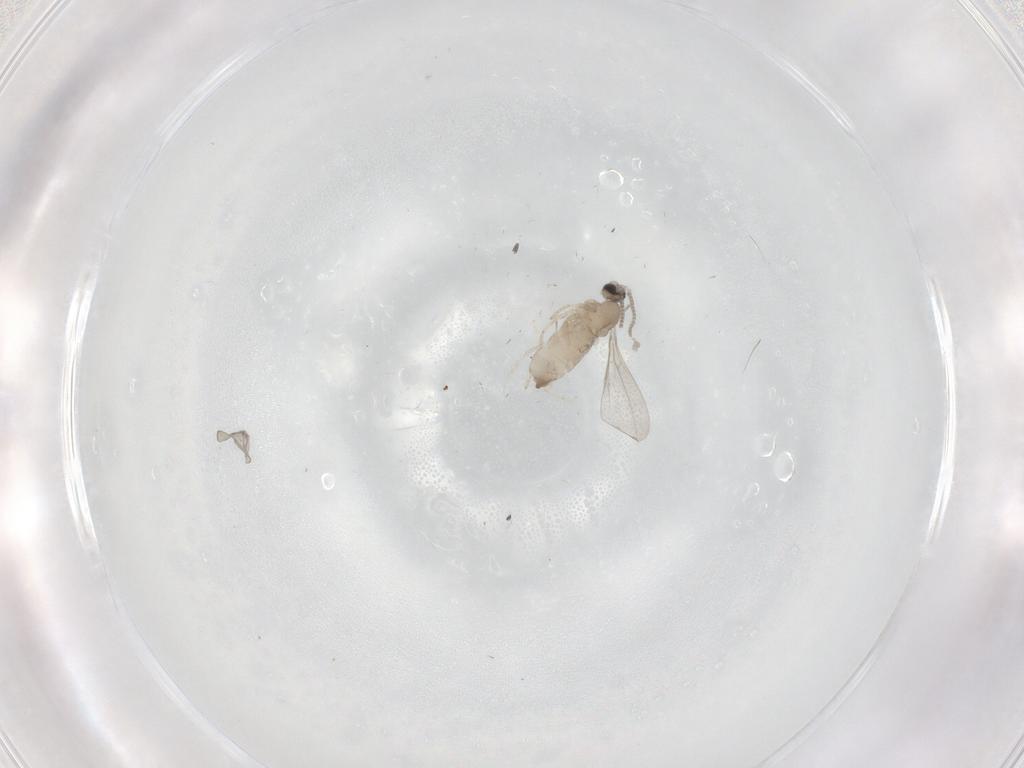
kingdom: Animalia
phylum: Arthropoda
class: Insecta
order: Diptera
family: Cecidomyiidae
